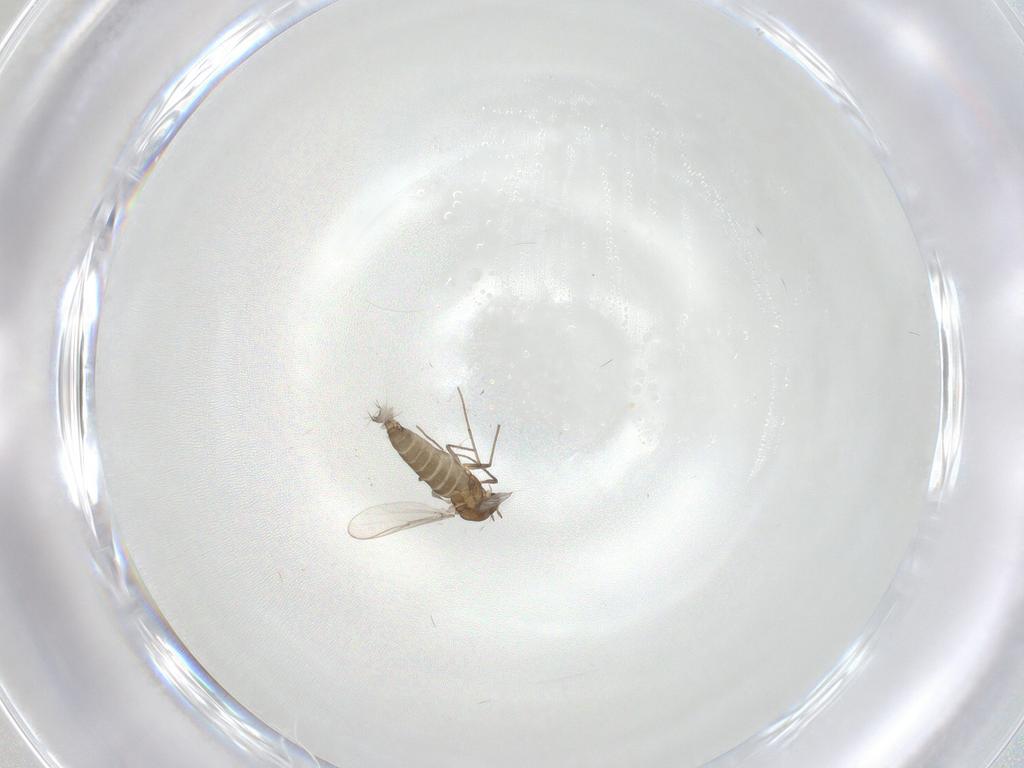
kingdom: Animalia
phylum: Arthropoda
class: Insecta
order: Diptera
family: Chironomidae
